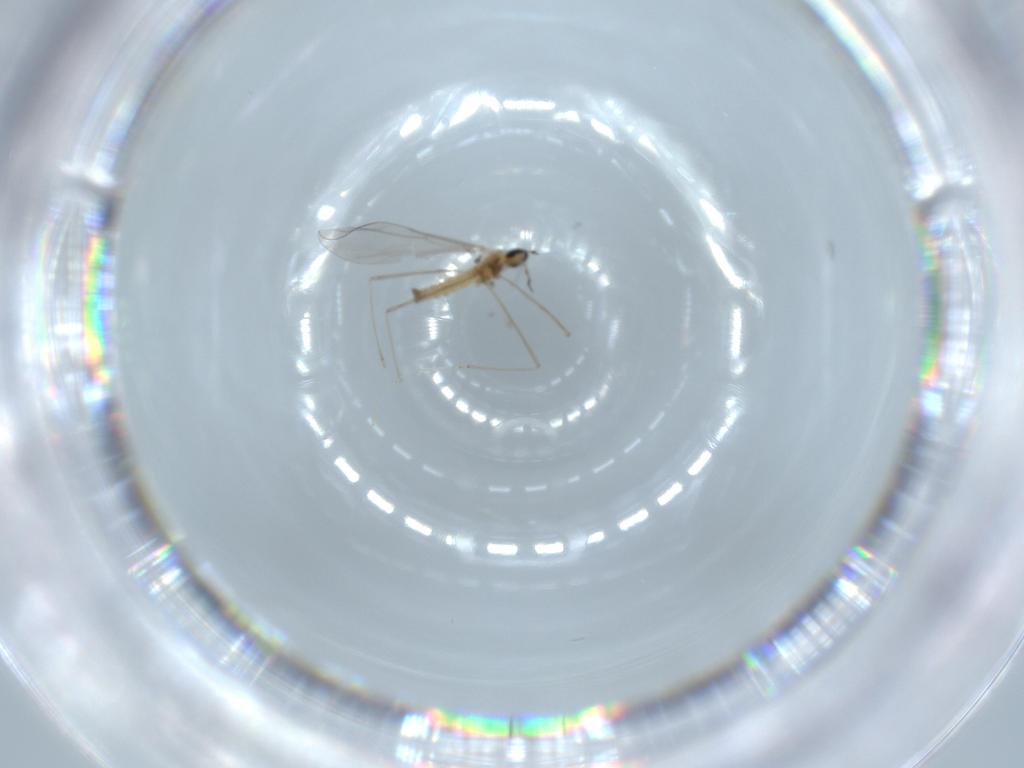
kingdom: Animalia
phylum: Arthropoda
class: Insecta
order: Diptera
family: Cecidomyiidae
